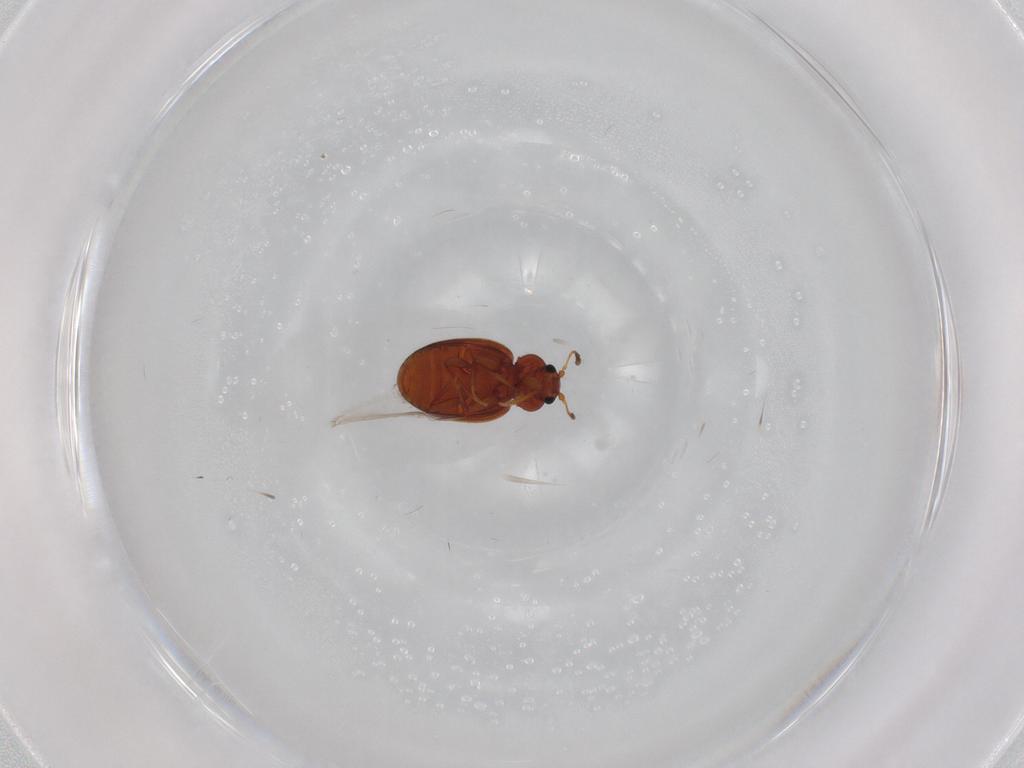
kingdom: Animalia
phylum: Arthropoda
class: Insecta
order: Coleoptera
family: Latridiidae
